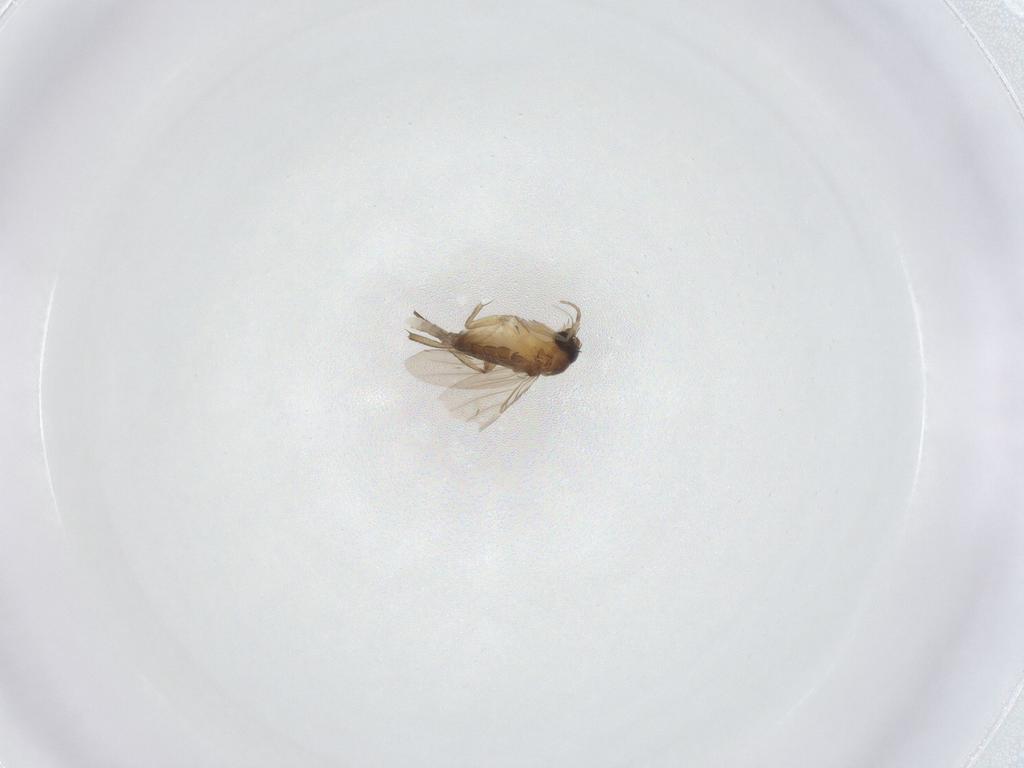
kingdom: Animalia
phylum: Arthropoda
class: Insecta
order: Diptera
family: Phoridae
